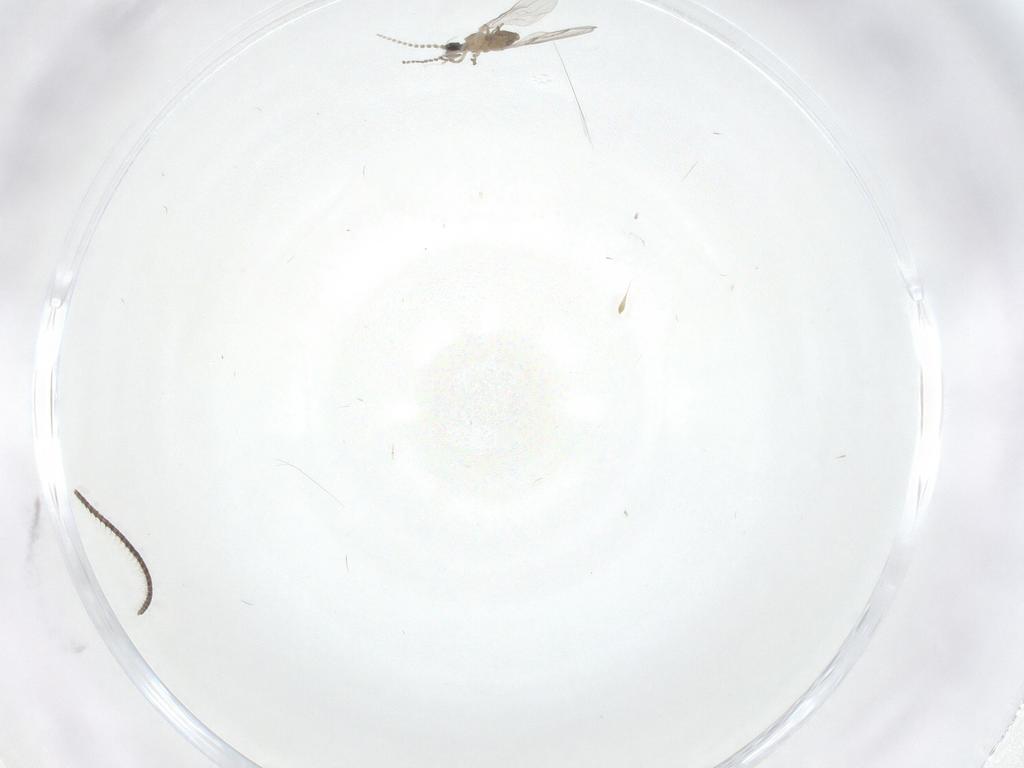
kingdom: Animalia
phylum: Arthropoda
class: Insecta
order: Diptera
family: Cecidomyiidae
